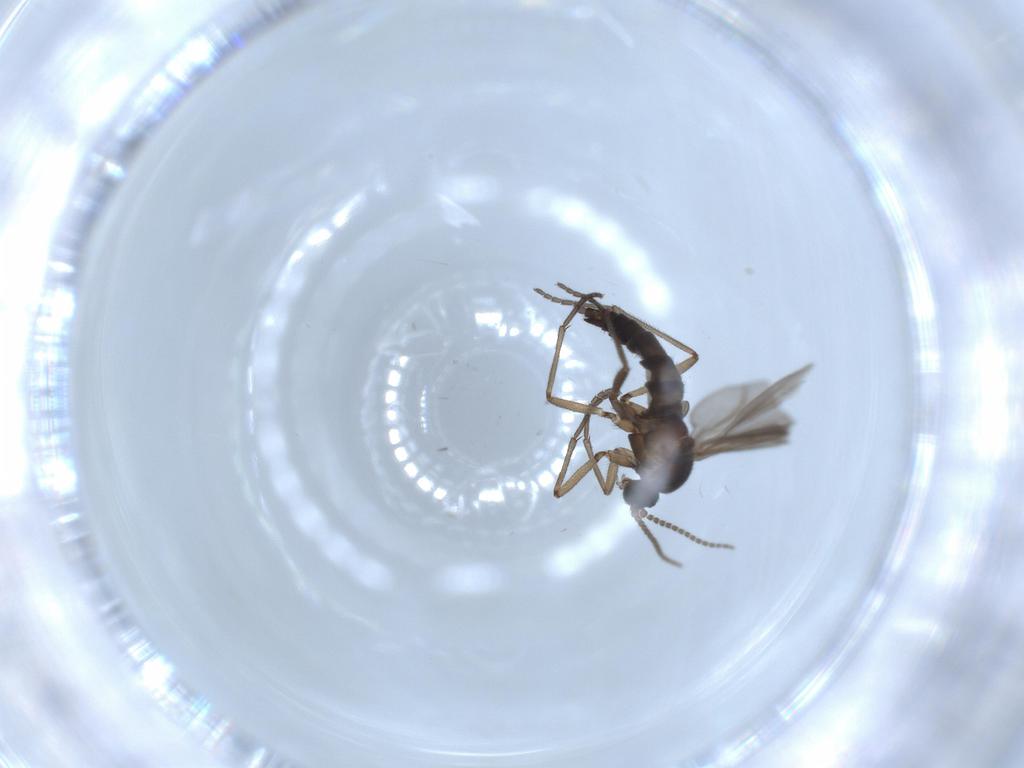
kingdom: Animalia
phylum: Arthropoda
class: Insecta
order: Diptera
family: Sciaridae
